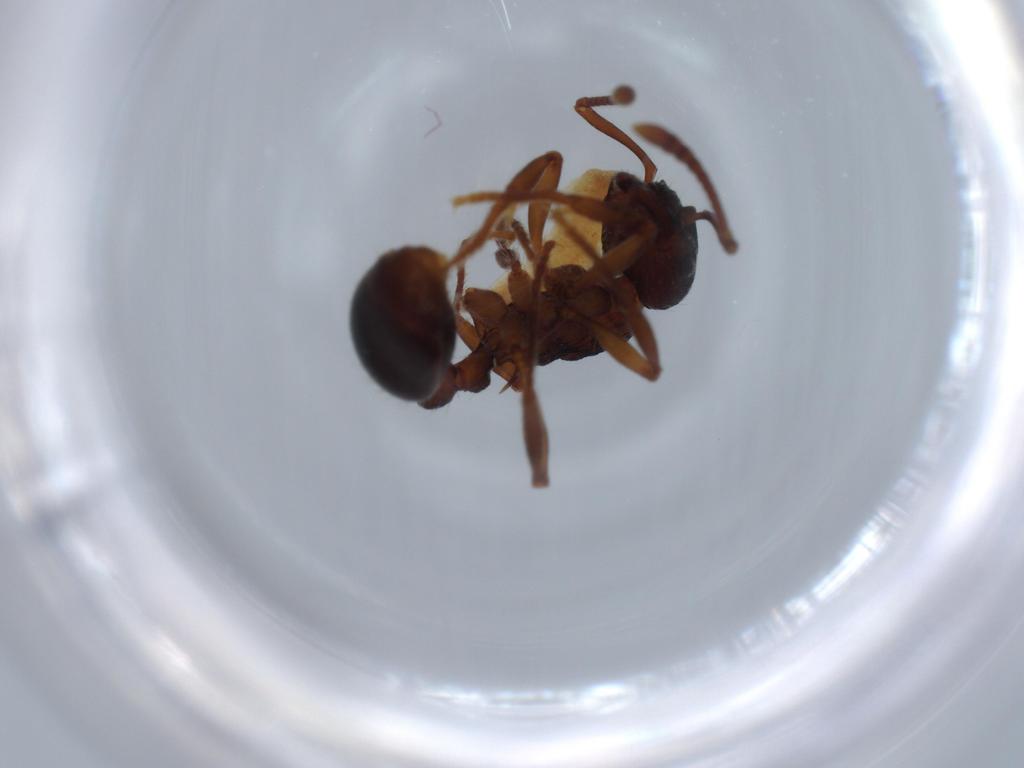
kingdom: Animalia
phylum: Arthropoda
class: Insecta
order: Hymenoptera
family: Formicidae
